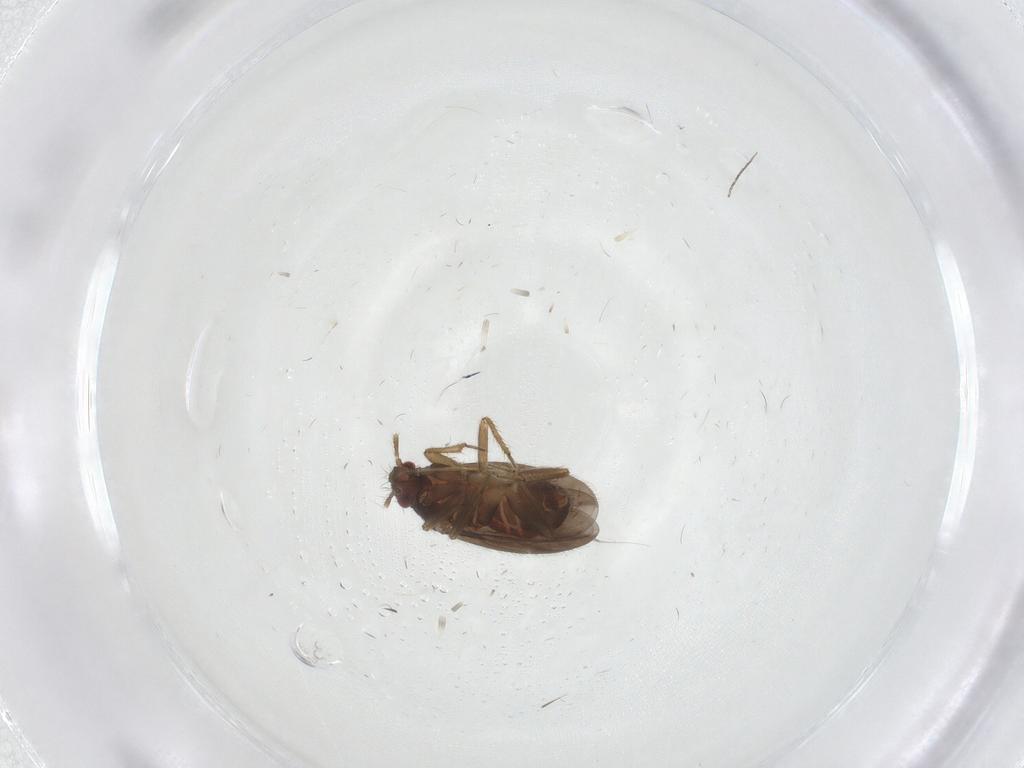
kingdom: Animalia
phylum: Arthropoda
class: Insecta
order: Hemiptera
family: Ceratocombidae
